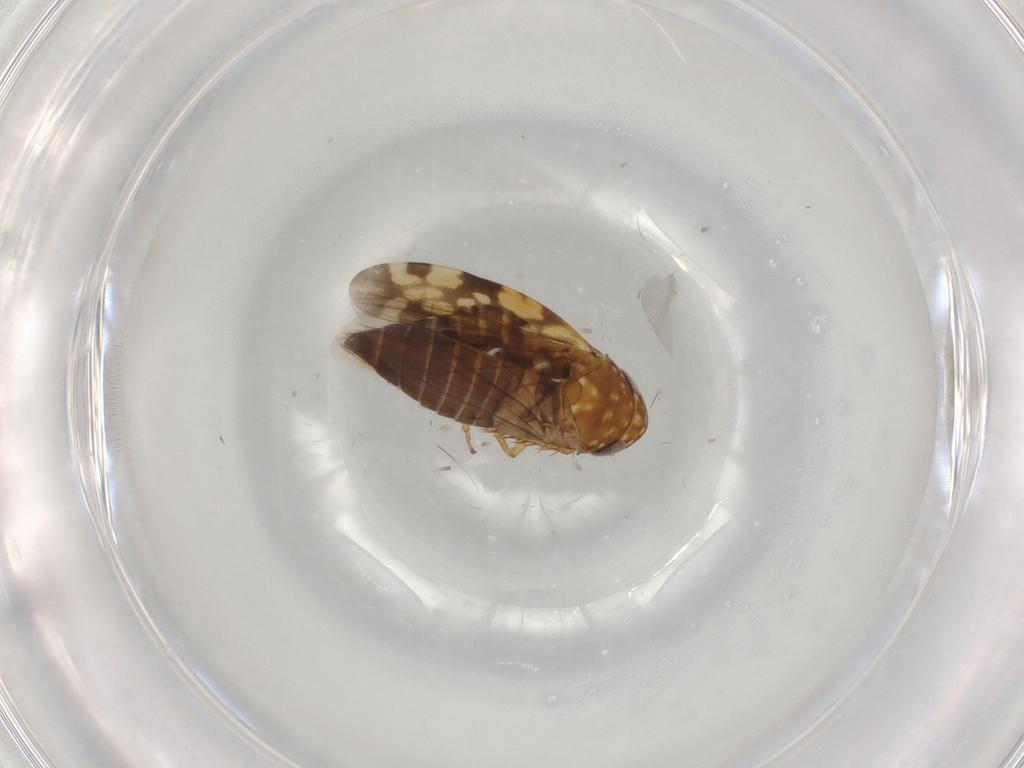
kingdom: Animalia
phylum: Arthropoda
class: Insecta
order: Hemiptera
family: Cicadellidae
